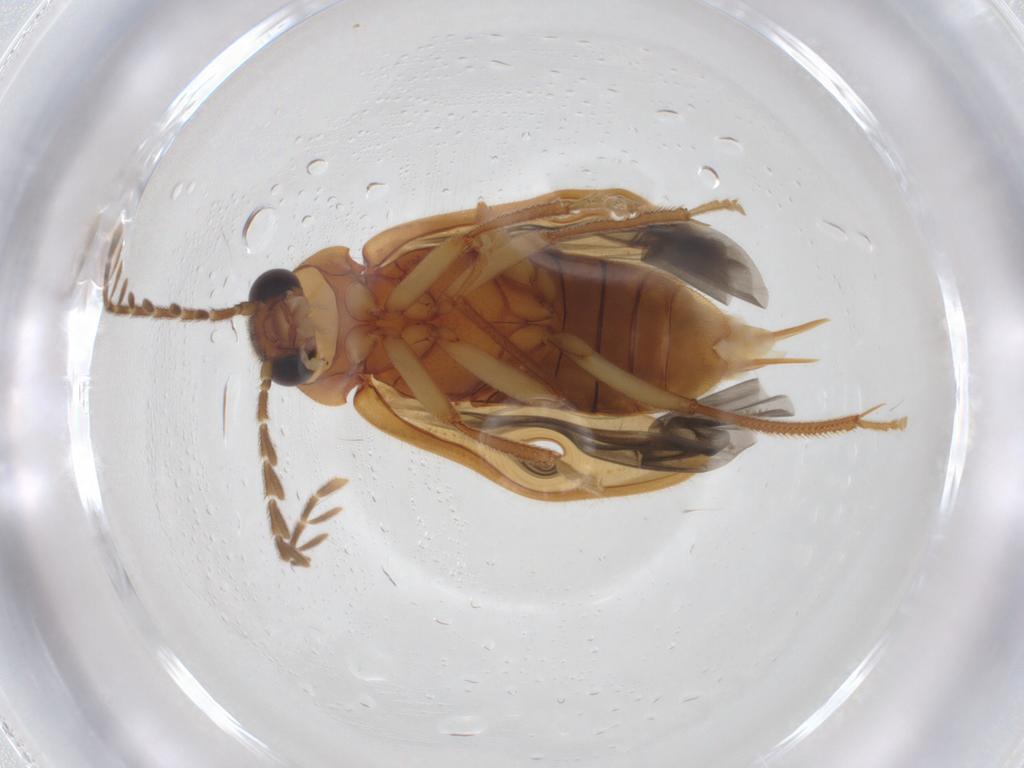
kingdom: Animalia
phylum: Arthropoda
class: Insecta
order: Coleoptera
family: Ptilodactylidae
